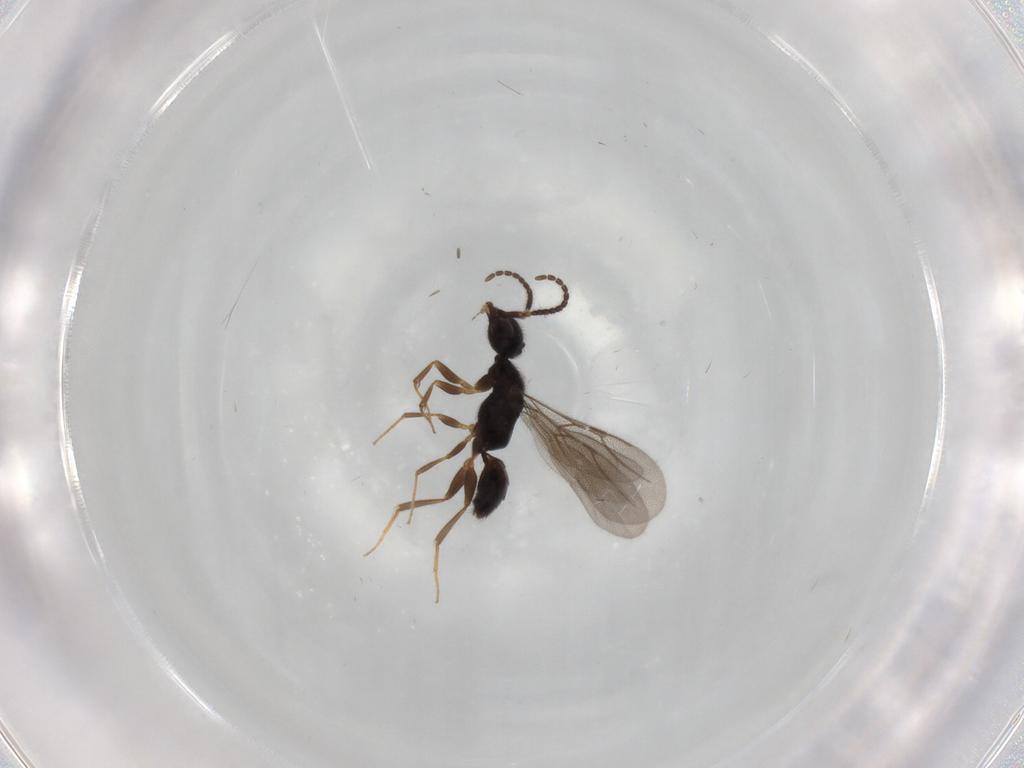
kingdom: Animalia
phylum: Arthropoda
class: Insecta
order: Hymenoptera
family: Bethylidae
